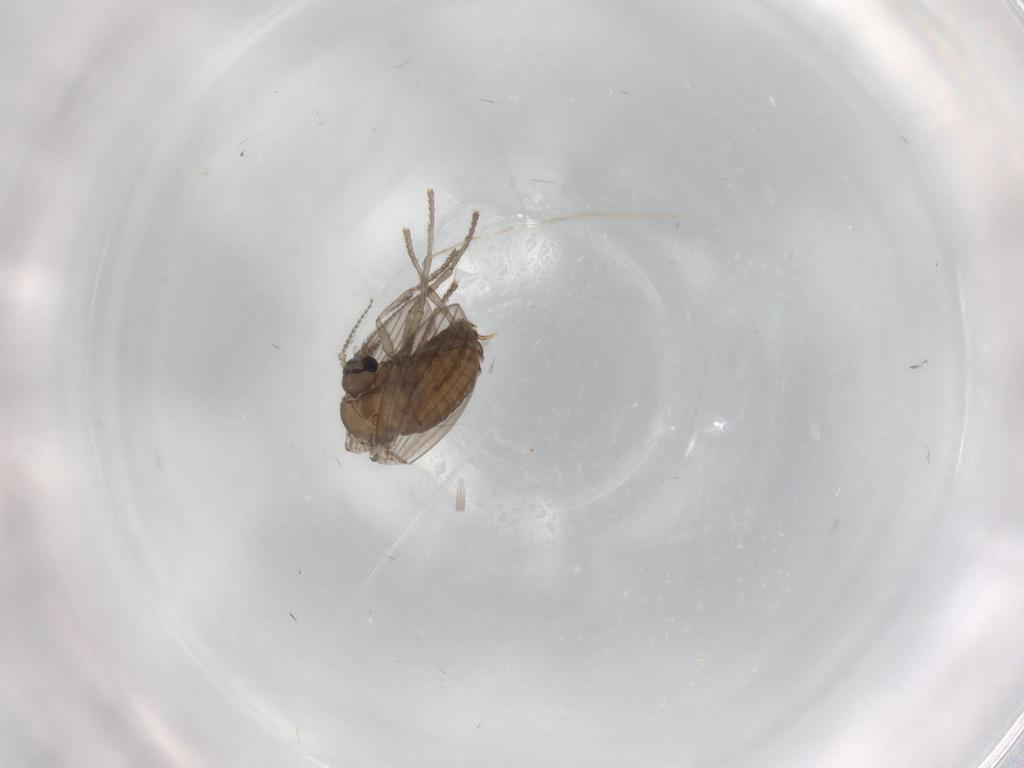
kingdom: Animalia
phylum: Arthropoda
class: Insecta
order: Diptera
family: Psychodidae
